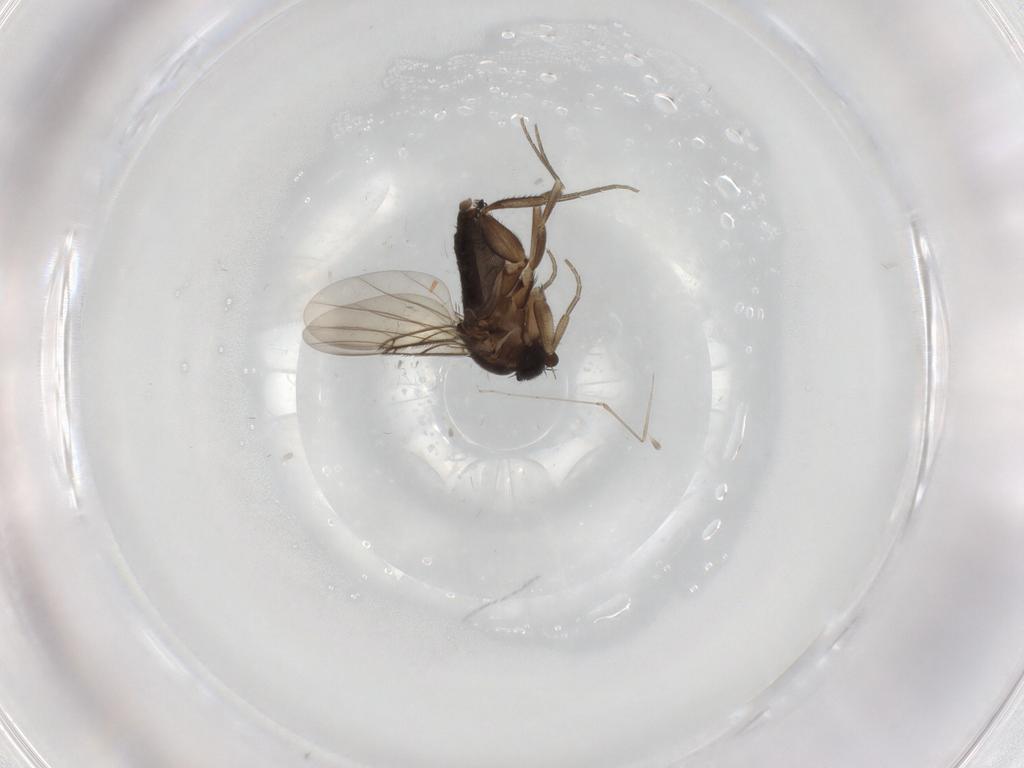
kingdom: Animalia
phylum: Arthropoda
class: Insecta
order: Diptera
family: Phoridae
